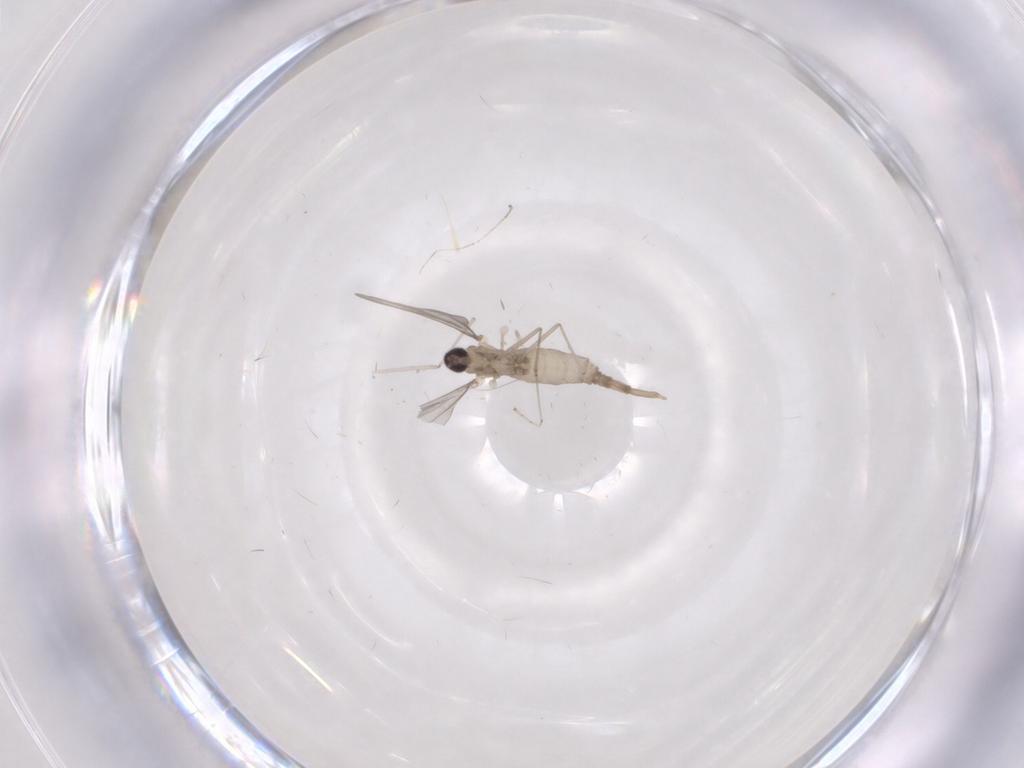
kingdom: Animalia
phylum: Arthropoda
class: Insecta
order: Diptera
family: Cecidomyiidae
